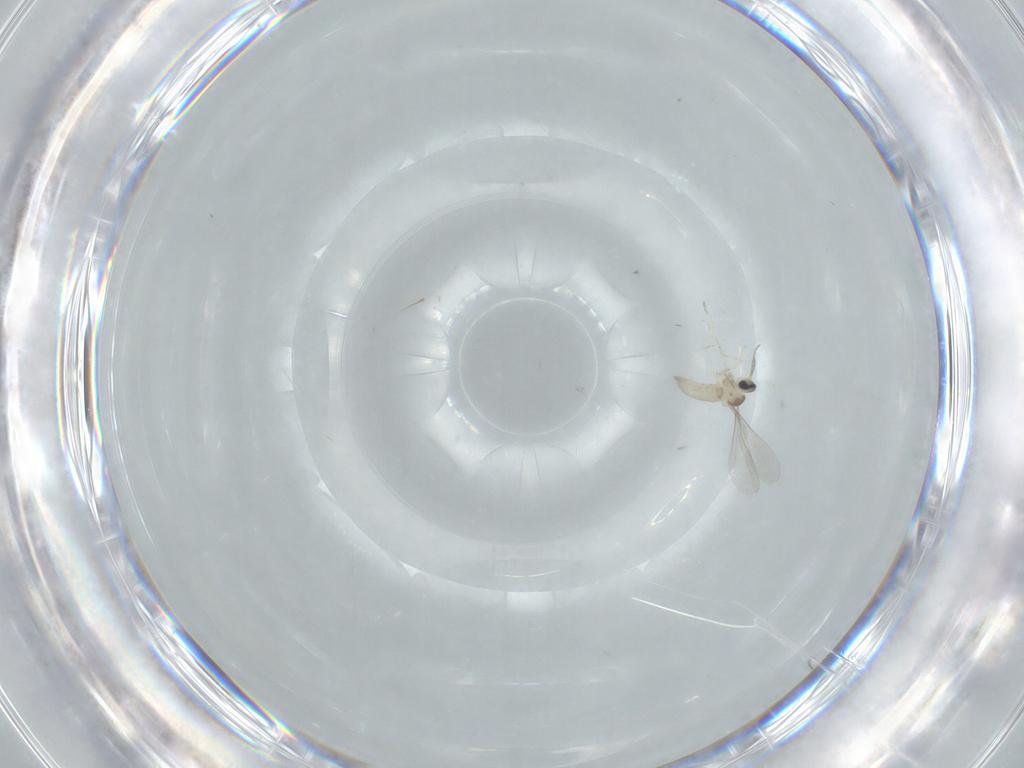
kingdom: Animalia
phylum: Arthropoda
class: Insecta
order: Diptera
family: Cecidomyiidae
